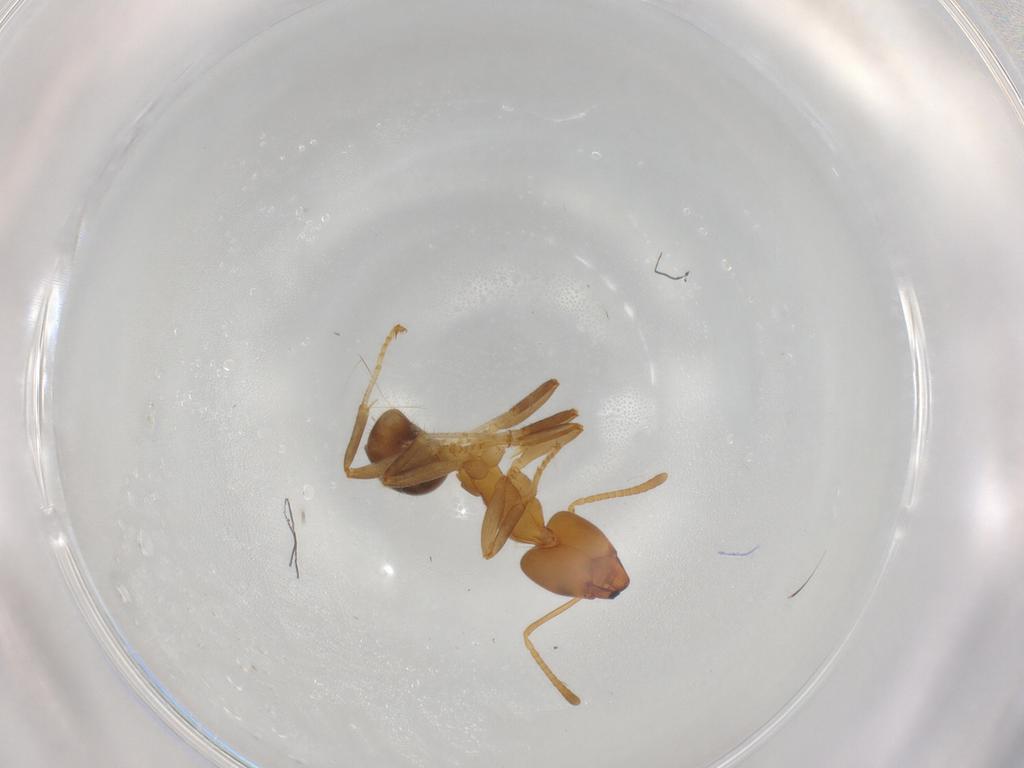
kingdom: Animalia
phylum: Arthropoda
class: Insecta
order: Hymenoptera
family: Formicidae
